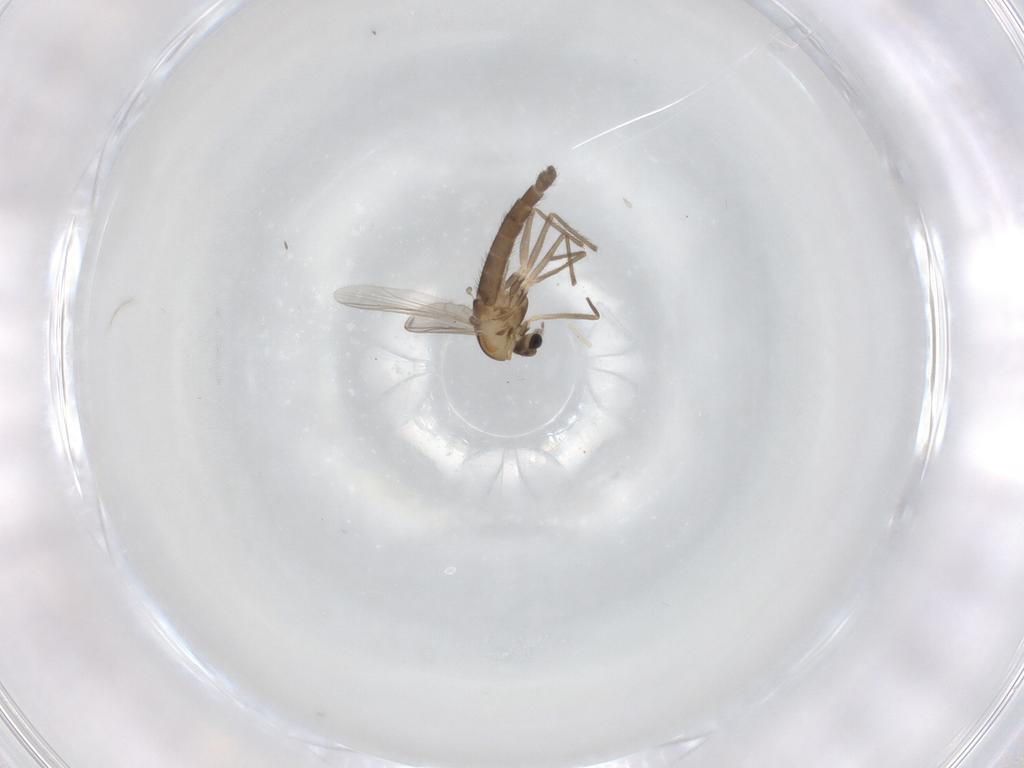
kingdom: Animalia
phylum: Arthropoda
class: Insecta
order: Diptera
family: Chironomidae
